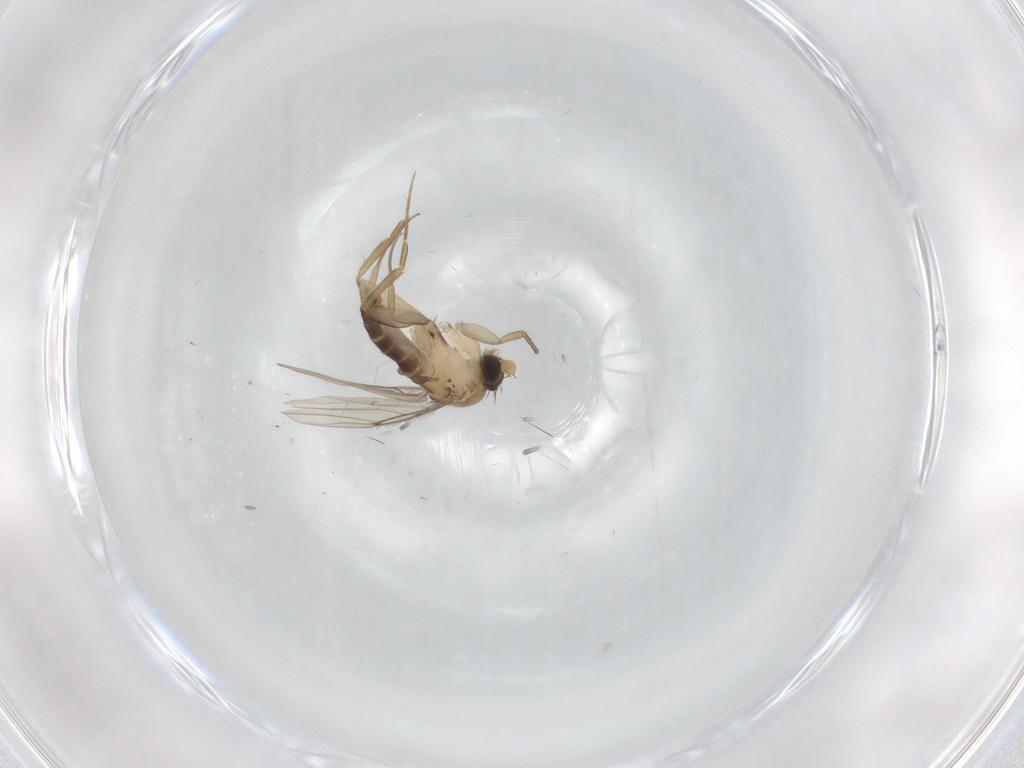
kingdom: Animalia
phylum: Arthropoda
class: Insecta
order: Diptera
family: Phoridae
